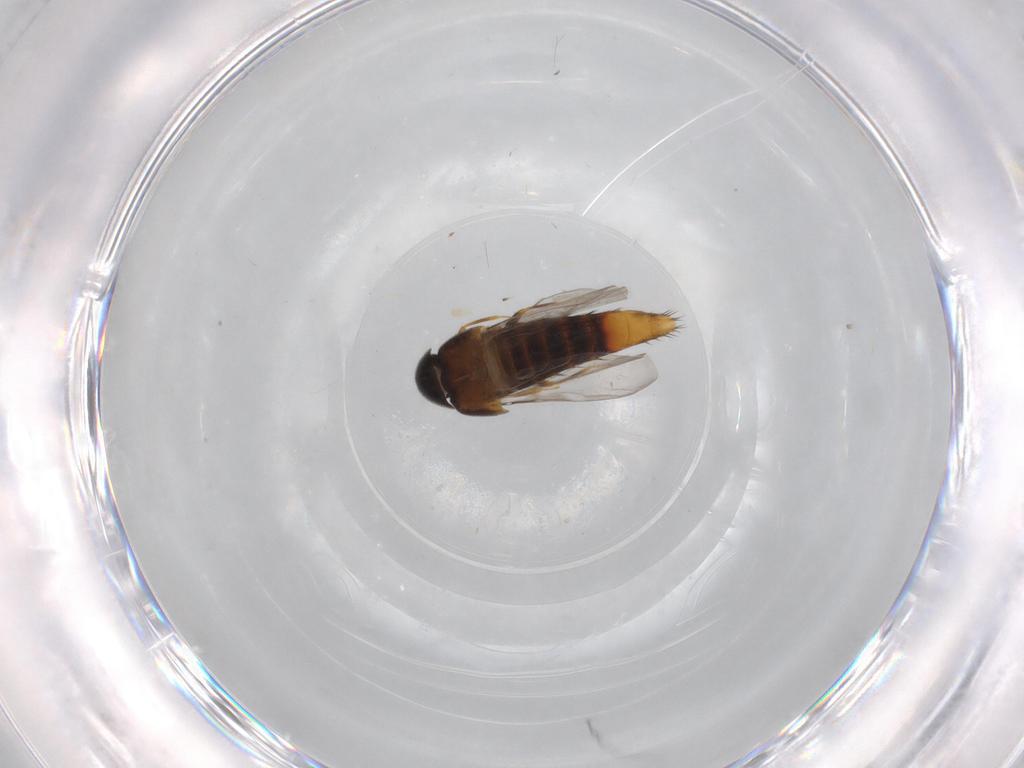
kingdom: Animalia
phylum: Arthropoda
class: Insecta
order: Coleoptera
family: Staphylinidae
